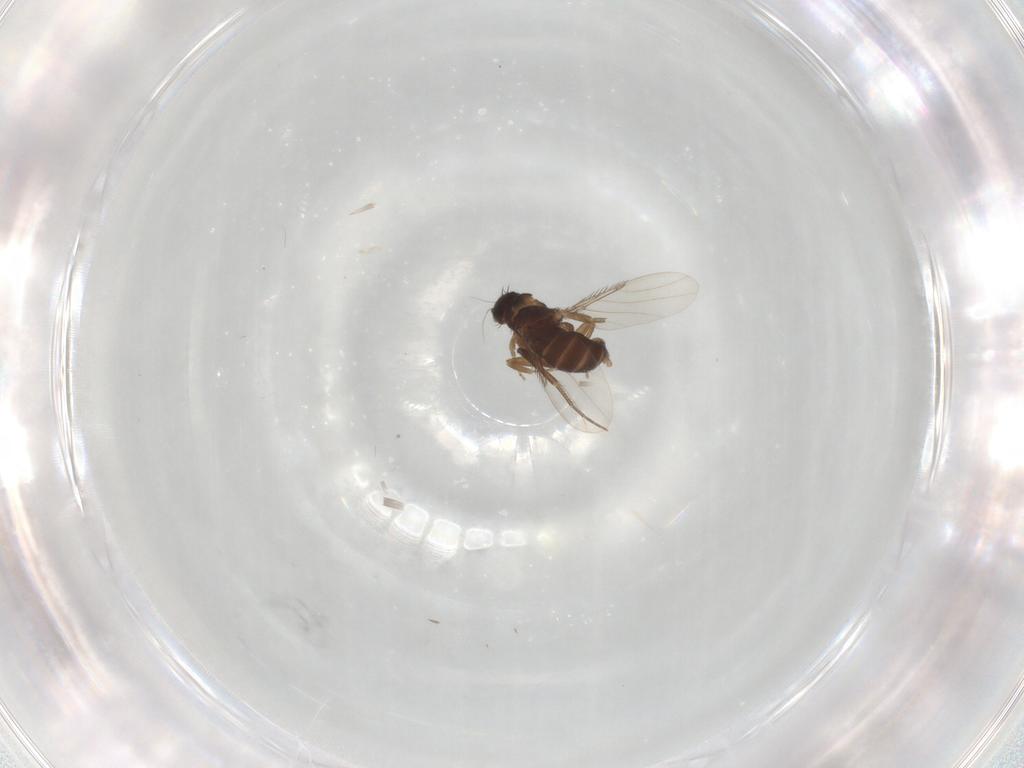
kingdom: Animalia
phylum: Arthropoda
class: Insecta
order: Diptera
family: Phoridae
